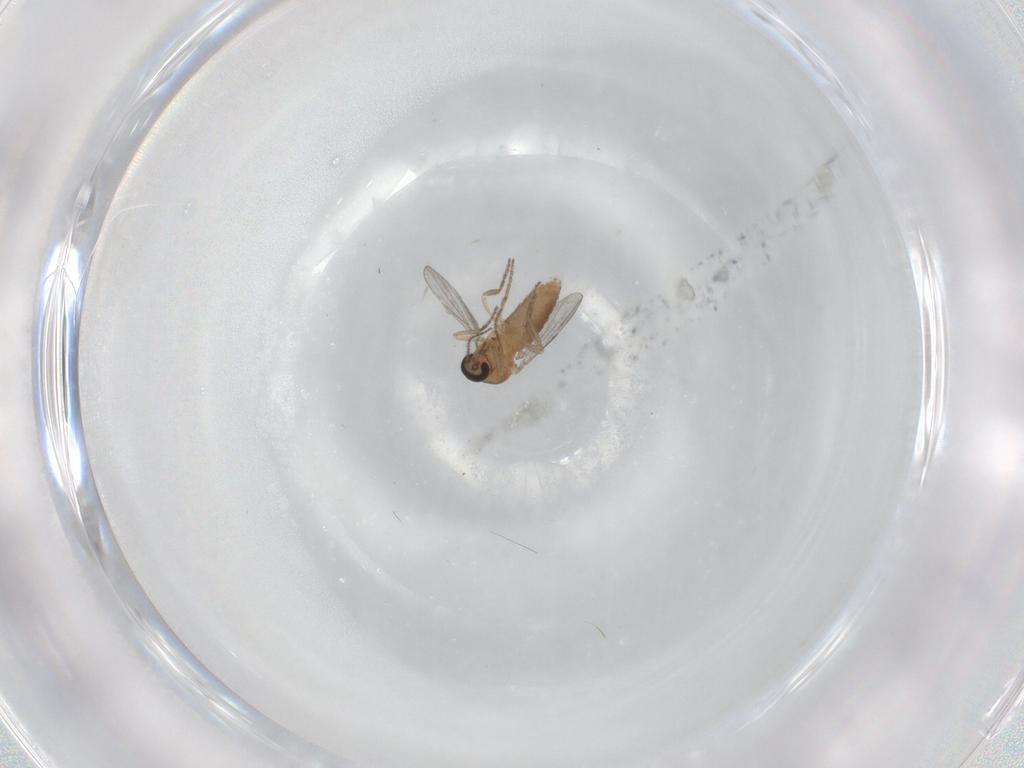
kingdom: Animalia
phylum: Arthropoda
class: Insecta
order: Diptera
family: Ceratopogonidae
